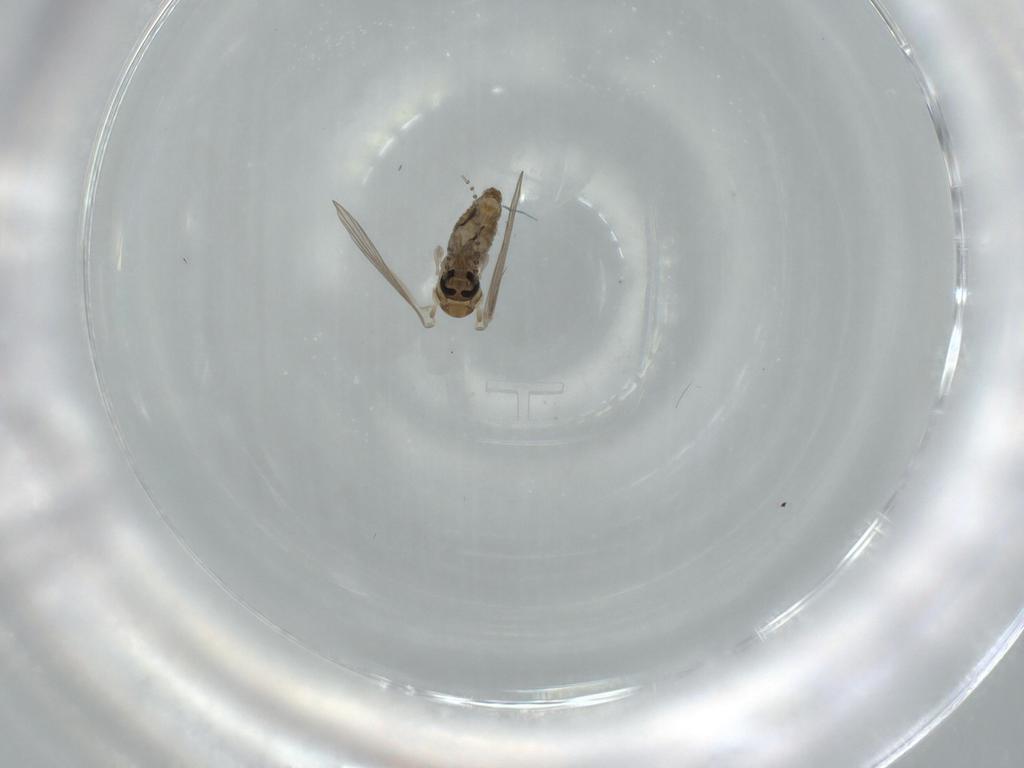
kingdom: Animalia
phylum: Arthropoda
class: Insecta
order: Diptera
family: Psychodidae
